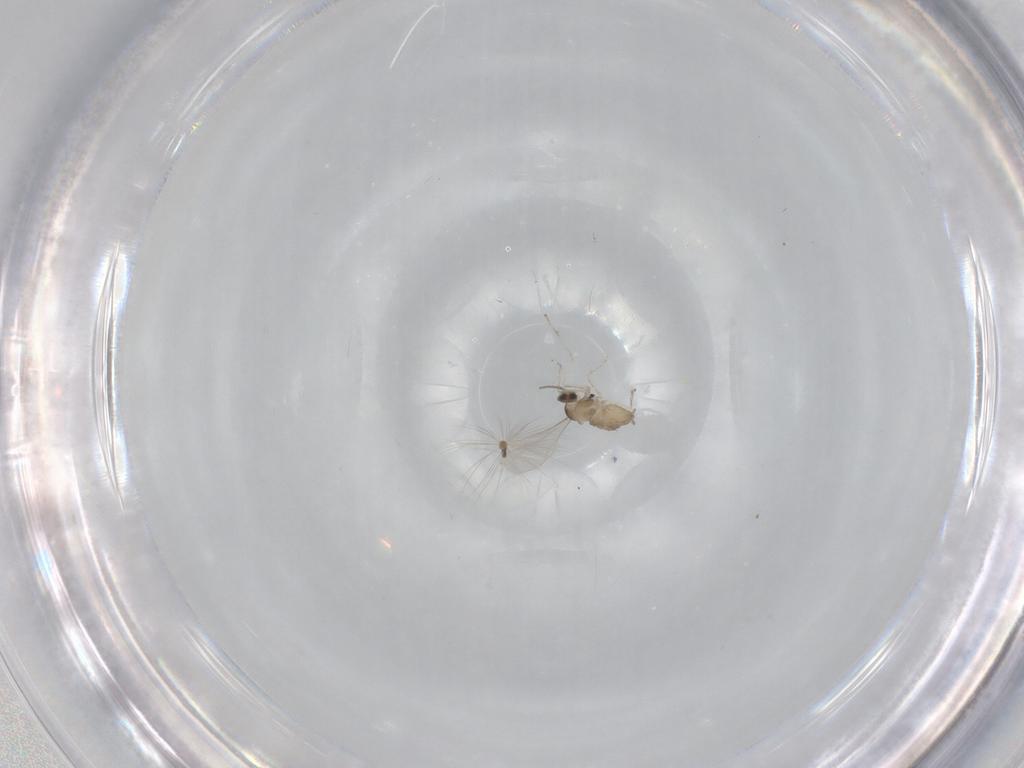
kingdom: Animalia
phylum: Arthropoda
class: Insecta
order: Diptera
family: Cecidomyiidae
